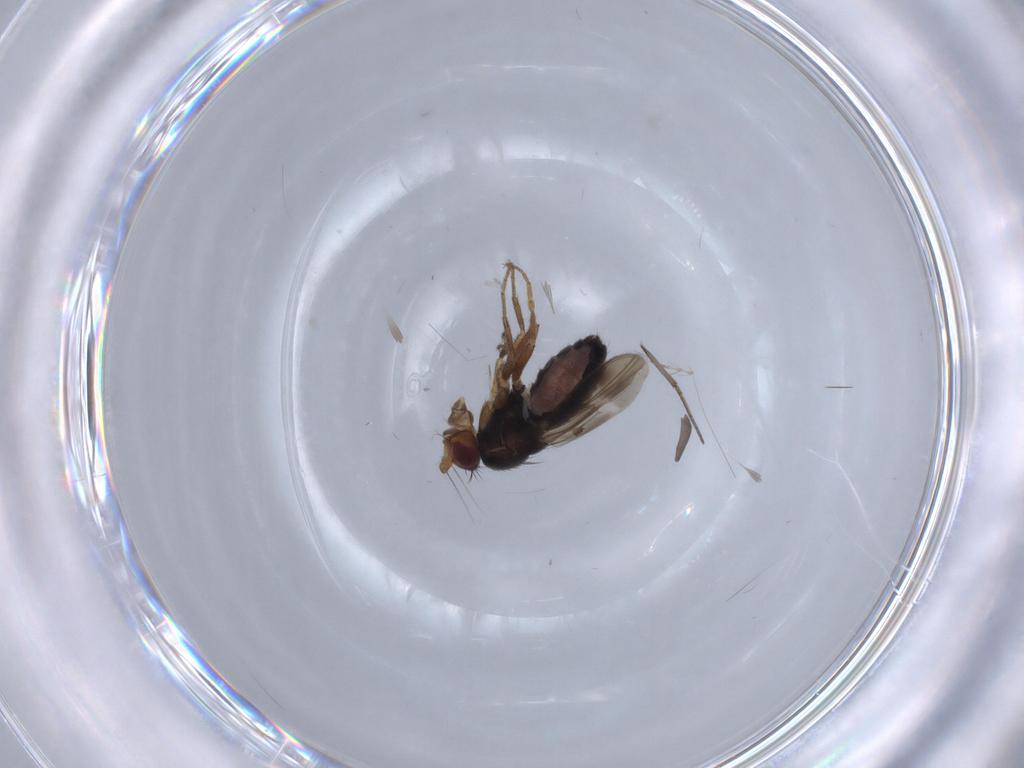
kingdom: Animalia
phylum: Arthropoda
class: Insecta
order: Diptera
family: Sphaeroceridae
